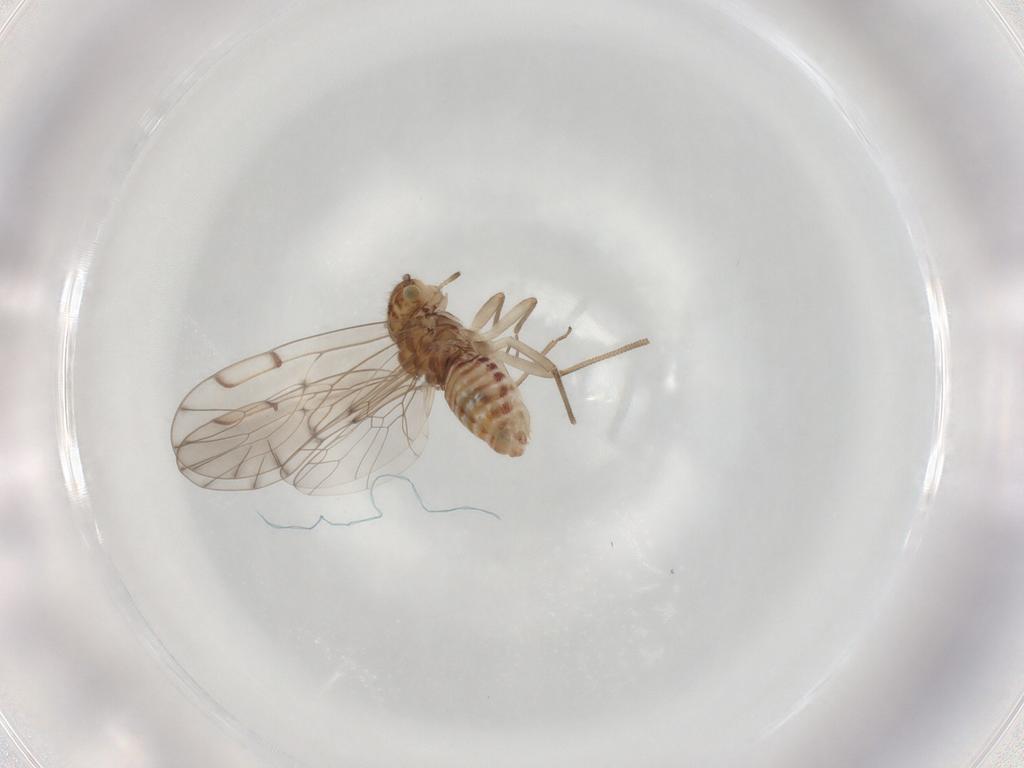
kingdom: Animalia
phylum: Arthropoda
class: Insecta
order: Diptera
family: Chironomidae
